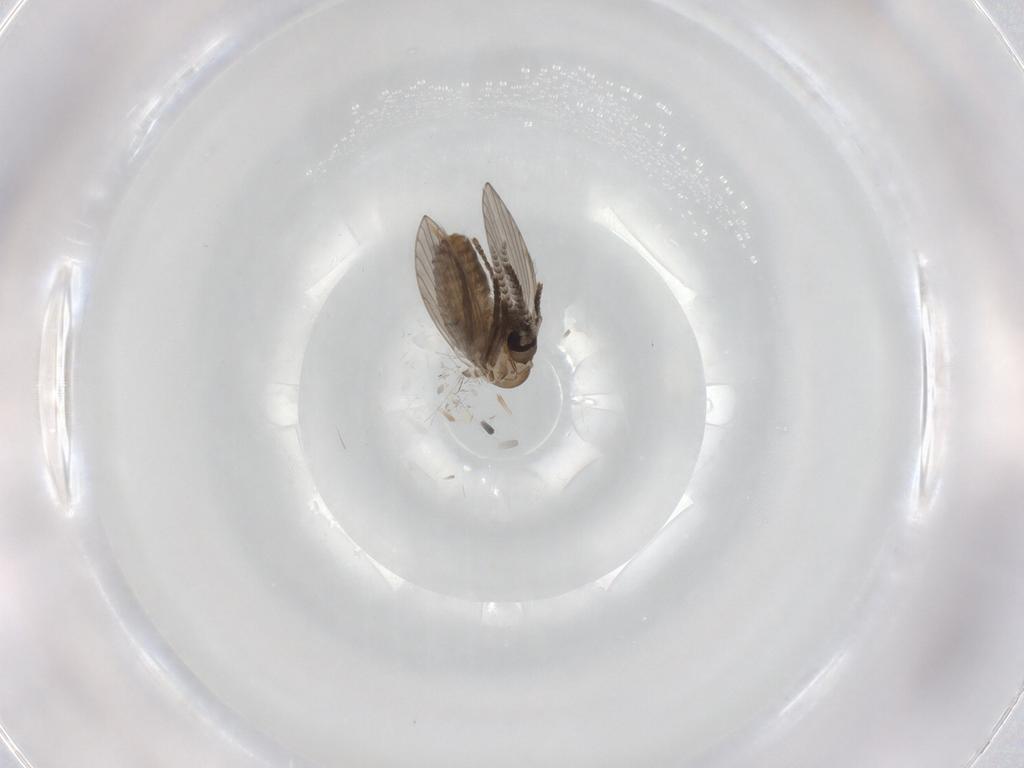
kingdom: Animalia
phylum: Arthropoda
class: Insecta
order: Diptera
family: Psychodidae
